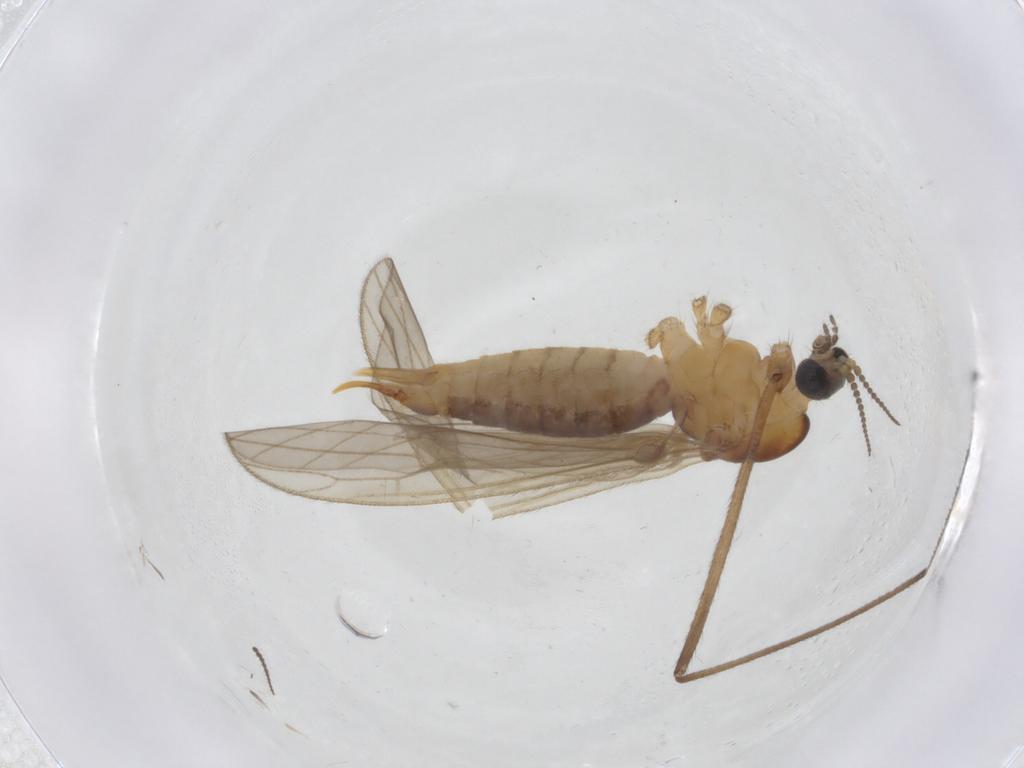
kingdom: Animalia
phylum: Arthropoda
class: Insecta
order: Diptera
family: Limoniidae
